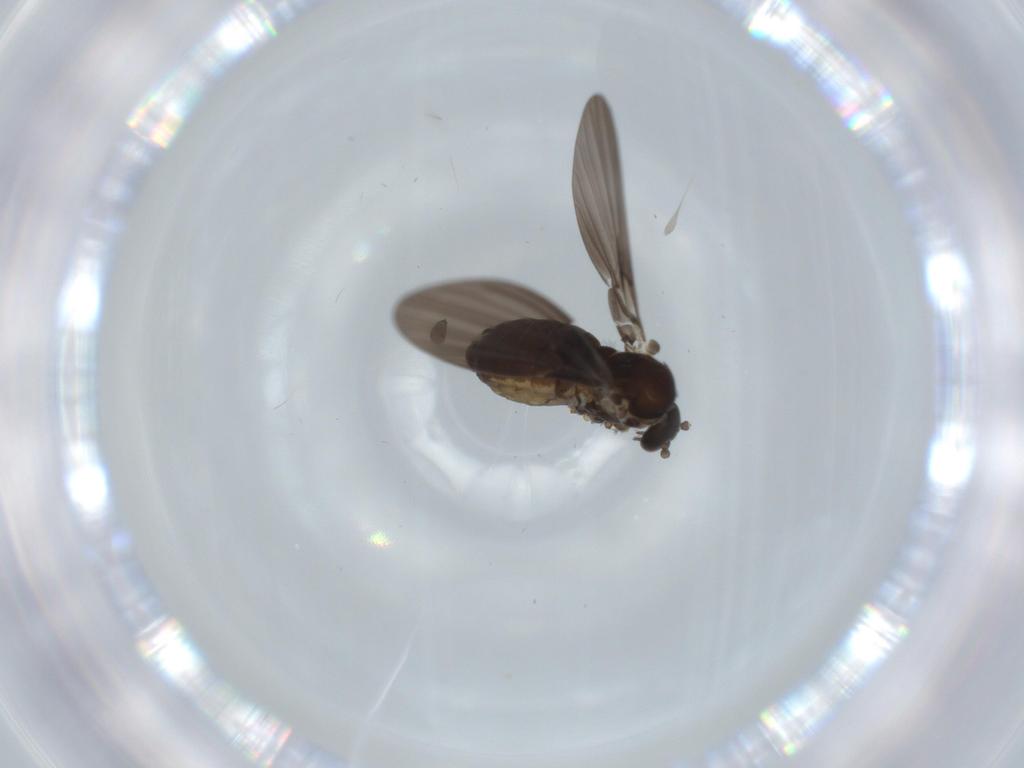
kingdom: Animalia
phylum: Arthropoda
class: Insecta
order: Diptera
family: Psychodidae
